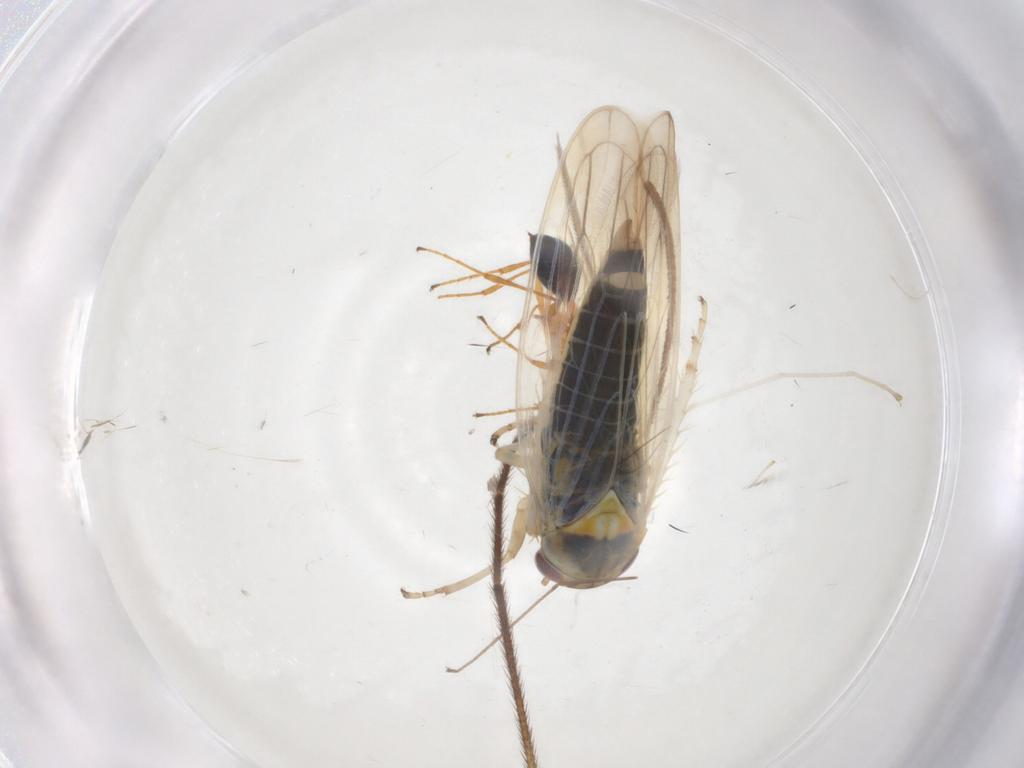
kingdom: Animalia
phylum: Arthropoda
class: Insecta
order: Hemiptera
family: Cicadellidae
